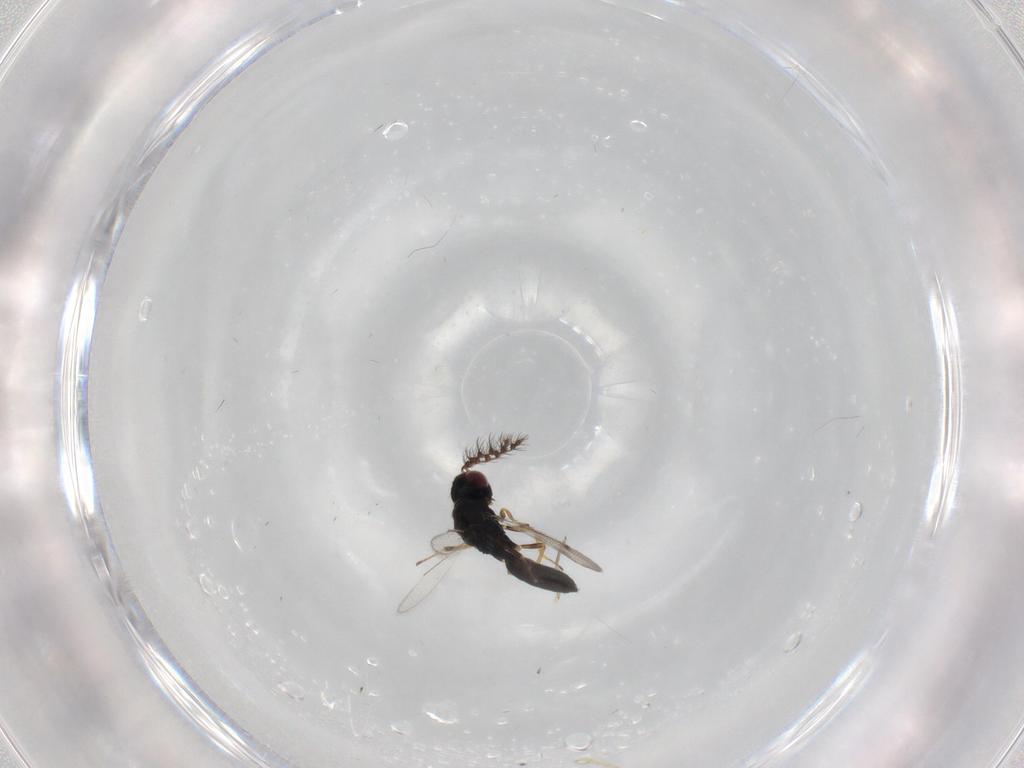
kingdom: Animalia
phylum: Arthropoda
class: Insecta
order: Hymenoptera
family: Eulophidae
